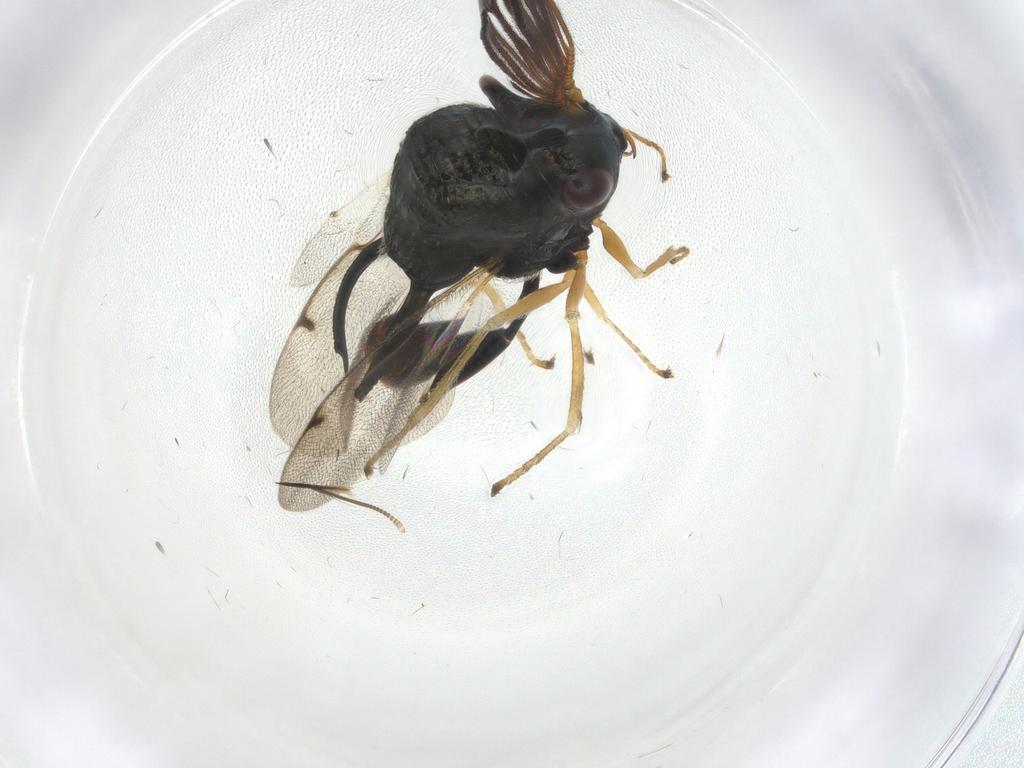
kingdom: Animalia
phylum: Arthropoda
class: Insecta
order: Diptera
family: Cecidomyiidae
